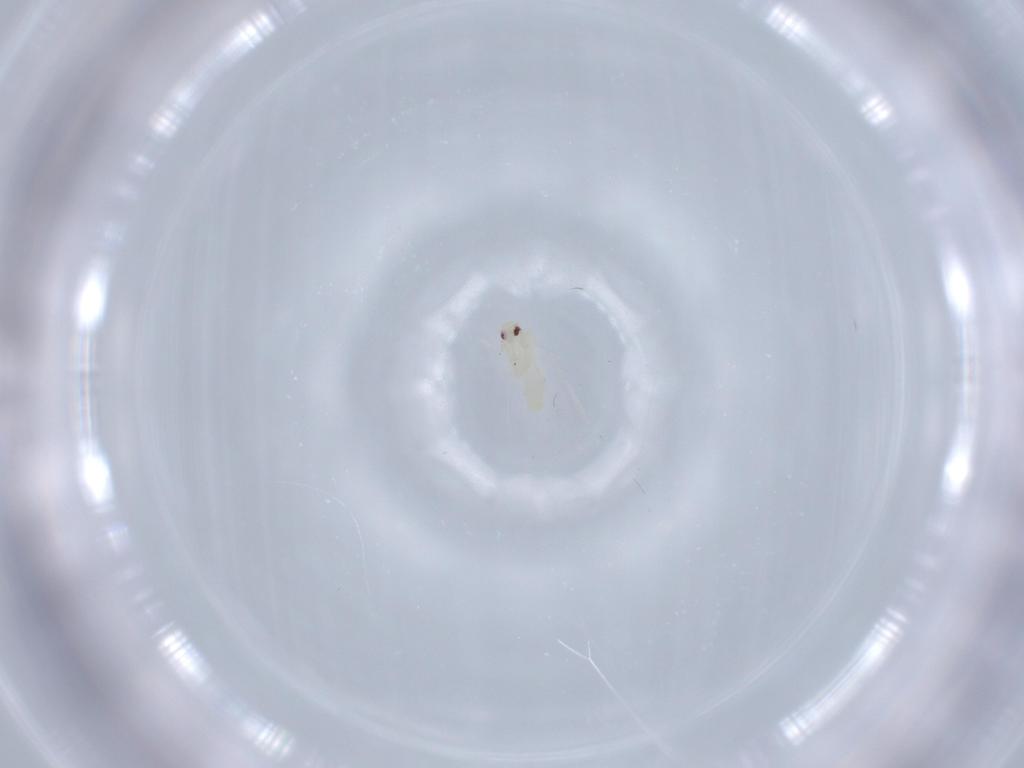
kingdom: Animalia
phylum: Arthropoda
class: Insecta
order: Hemiptera
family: Aleyrodidae
